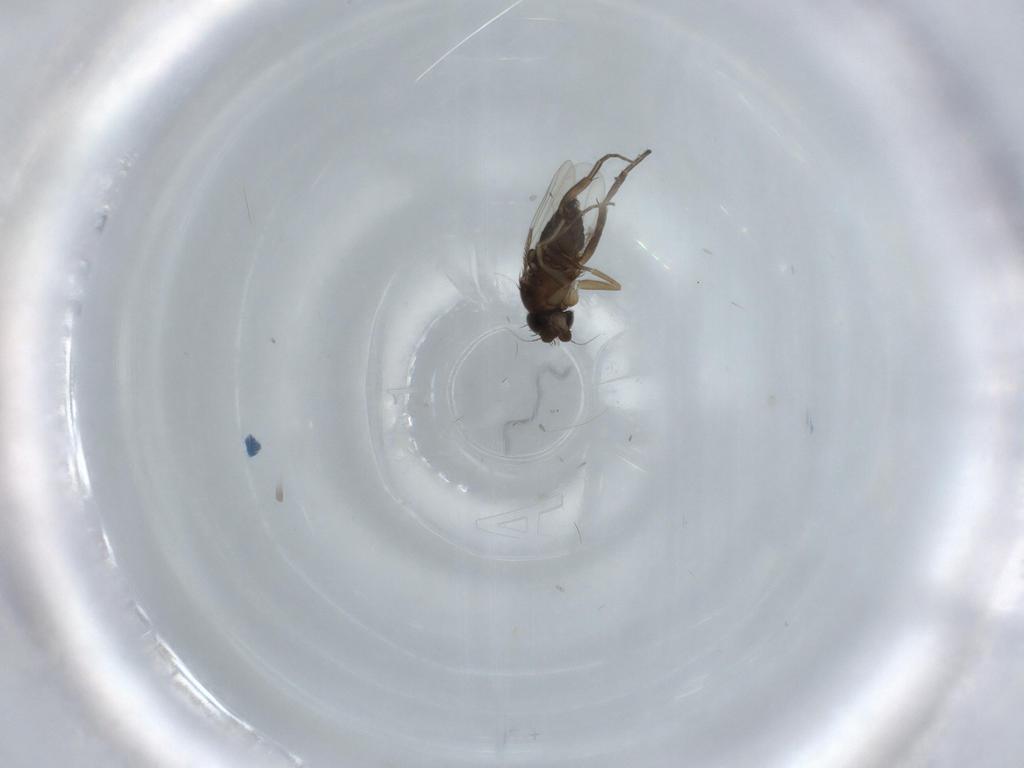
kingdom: Animalia
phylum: Arthropoda
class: Insecta
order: Diptera
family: Phoridae
